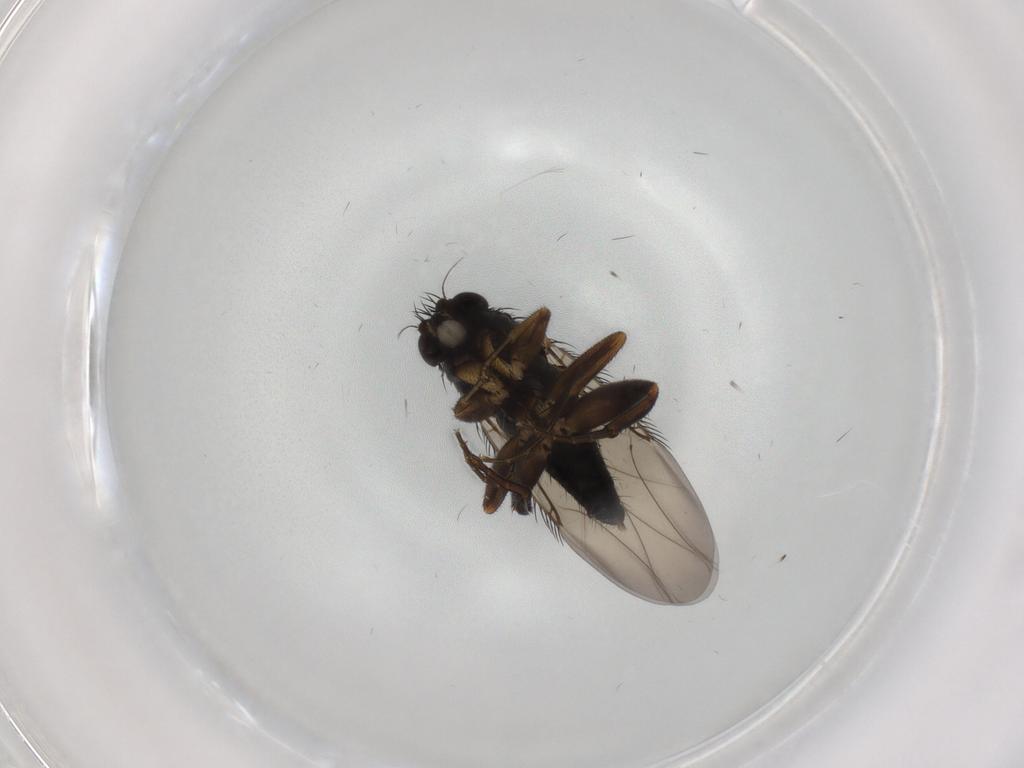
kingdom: Animalia
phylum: Arthropoda
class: Insecta
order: Diptera
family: Phoridae
